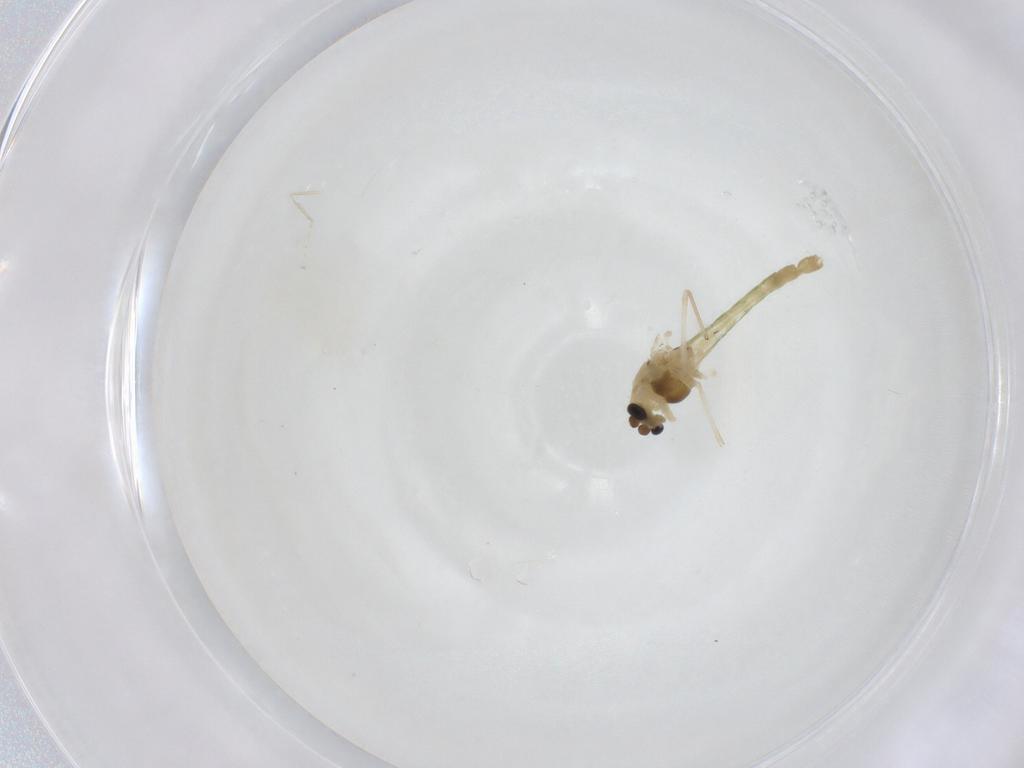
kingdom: Animalia
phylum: Arthropoda
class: Insecta
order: Diptera
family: Chironomidae
